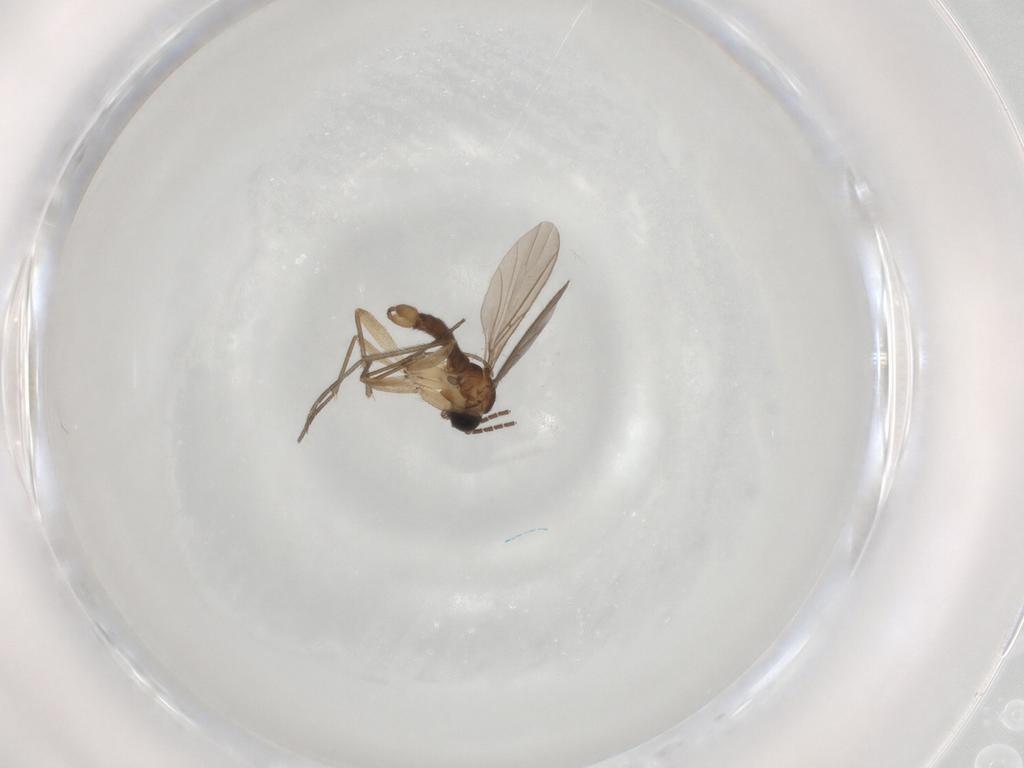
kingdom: Animalia
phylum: Arthropoda
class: Insecta
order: Diptera
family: Sciaridae
